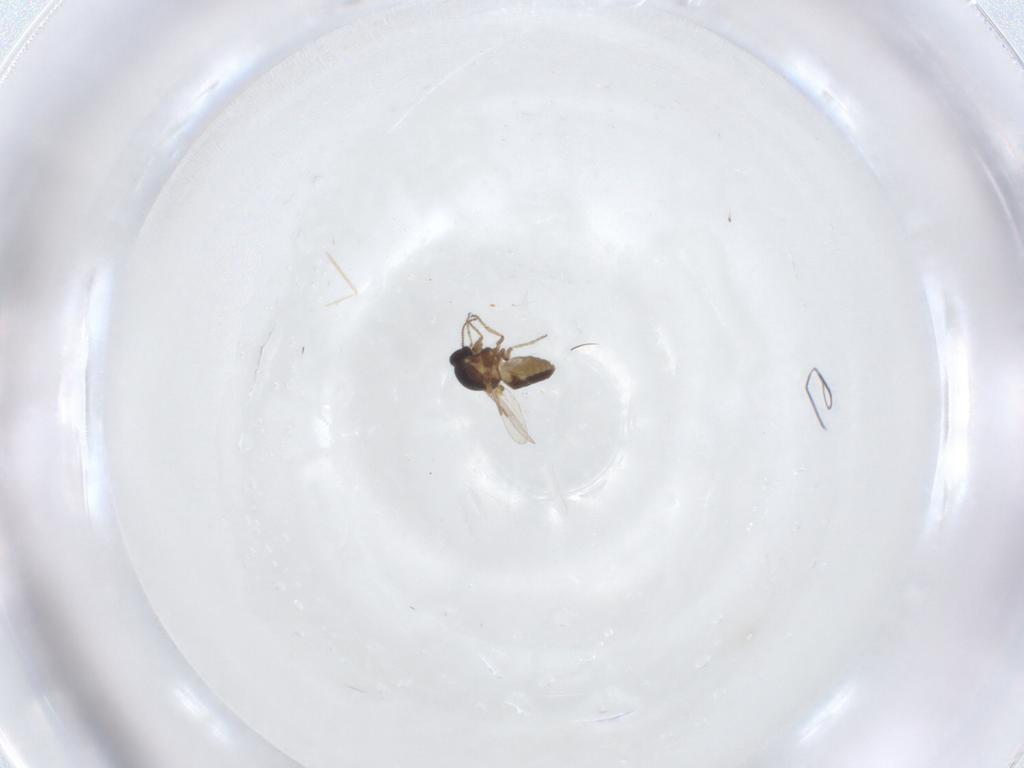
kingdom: Animalia
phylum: Arthropoda
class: Insecta
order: Diptera
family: Ceratopogonidae
